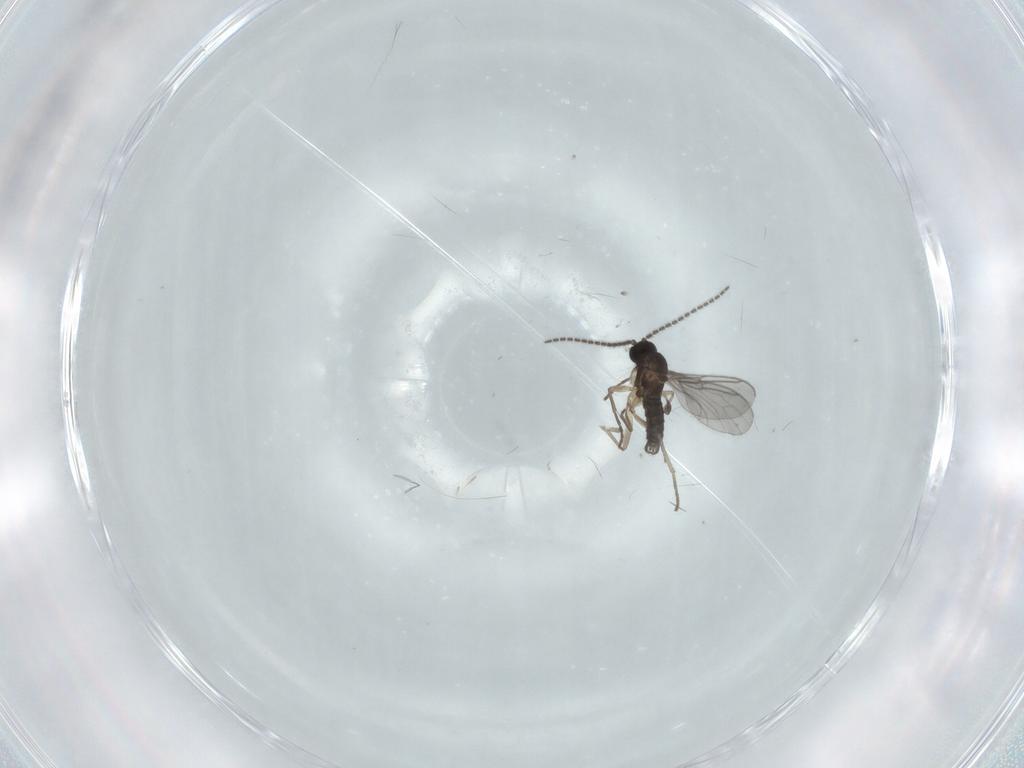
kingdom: Animalia
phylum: Arthropoda
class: Insecta
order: Diptera
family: Sciaridae
